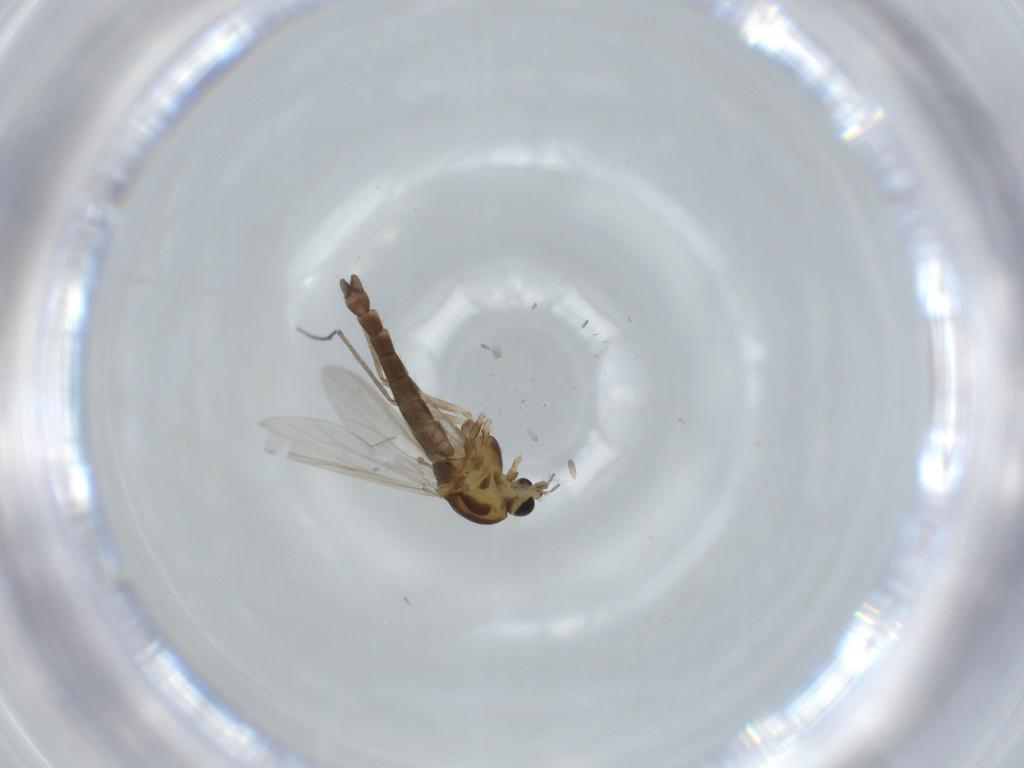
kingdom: Animalia
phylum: Arthropoda
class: Insecta
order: Diptera
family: Chironomidae
